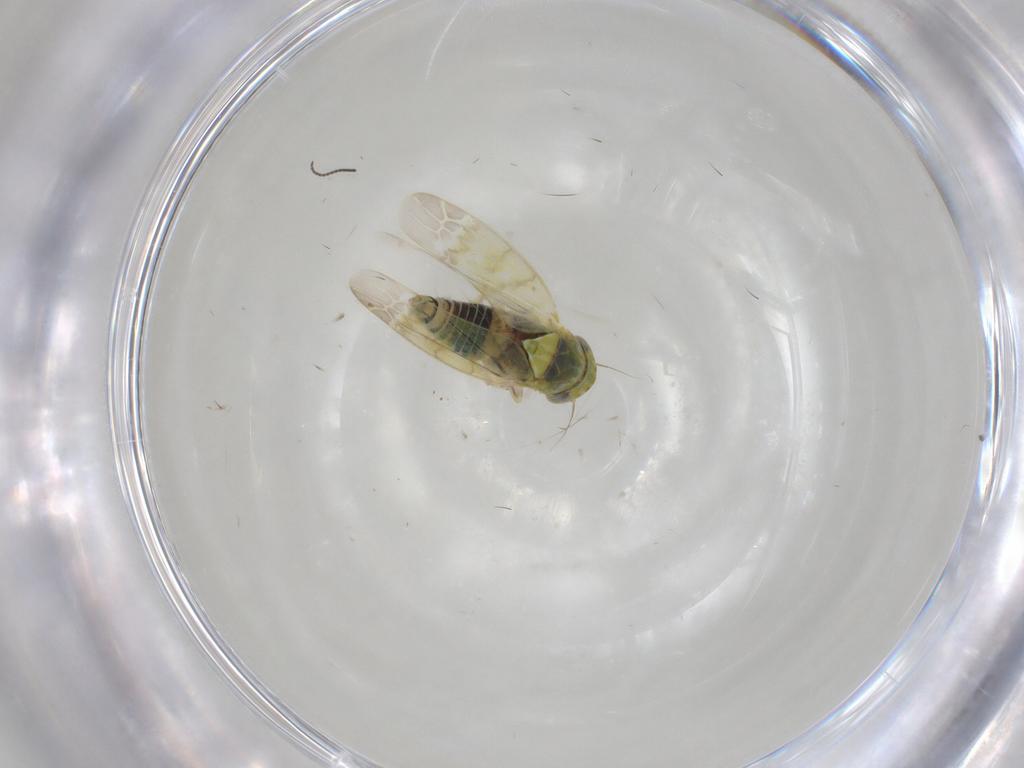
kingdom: Animalia
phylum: Arthropoda
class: Insecta
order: Hemiptera
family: Cicadellidae
